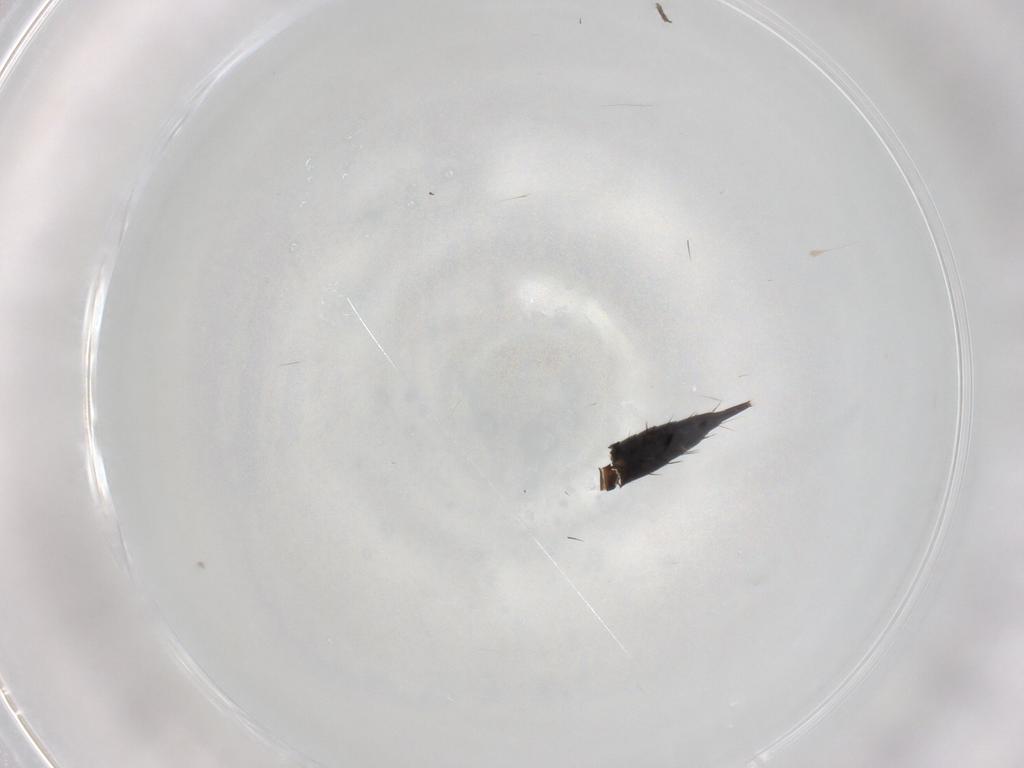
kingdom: Animalia
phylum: Arthropoda
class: Insecta
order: Thysanoptera
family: Phlaeothripidae
